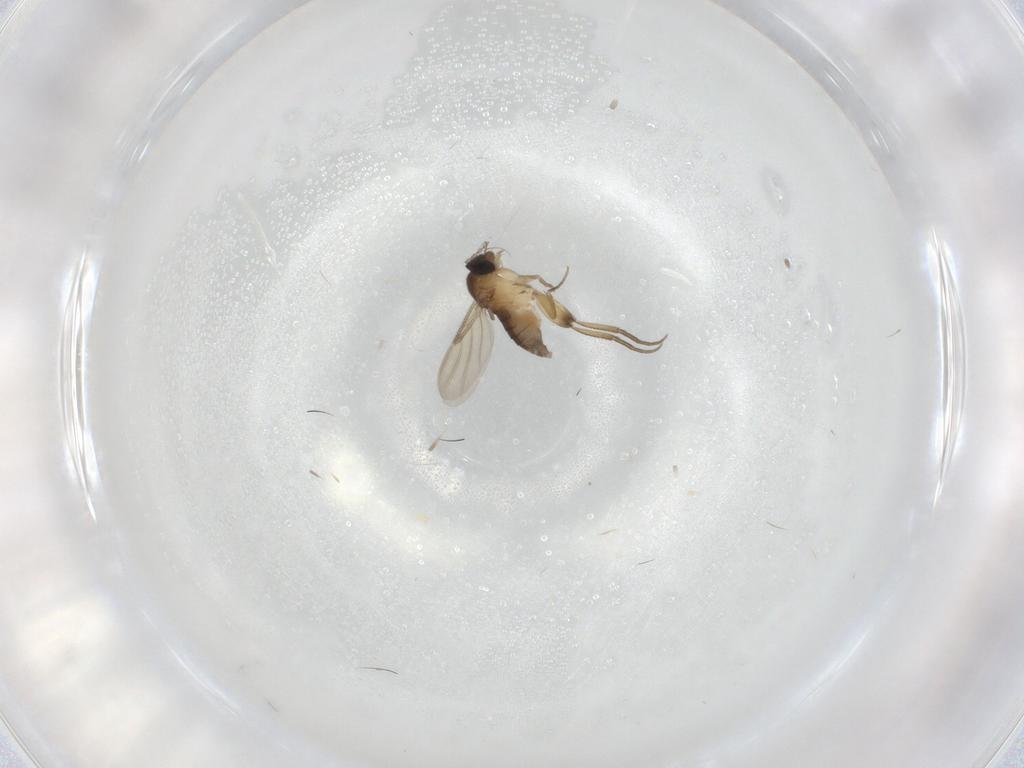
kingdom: Animalia
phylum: Arthropoda
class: Insecta
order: Diptera
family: Phoridae
